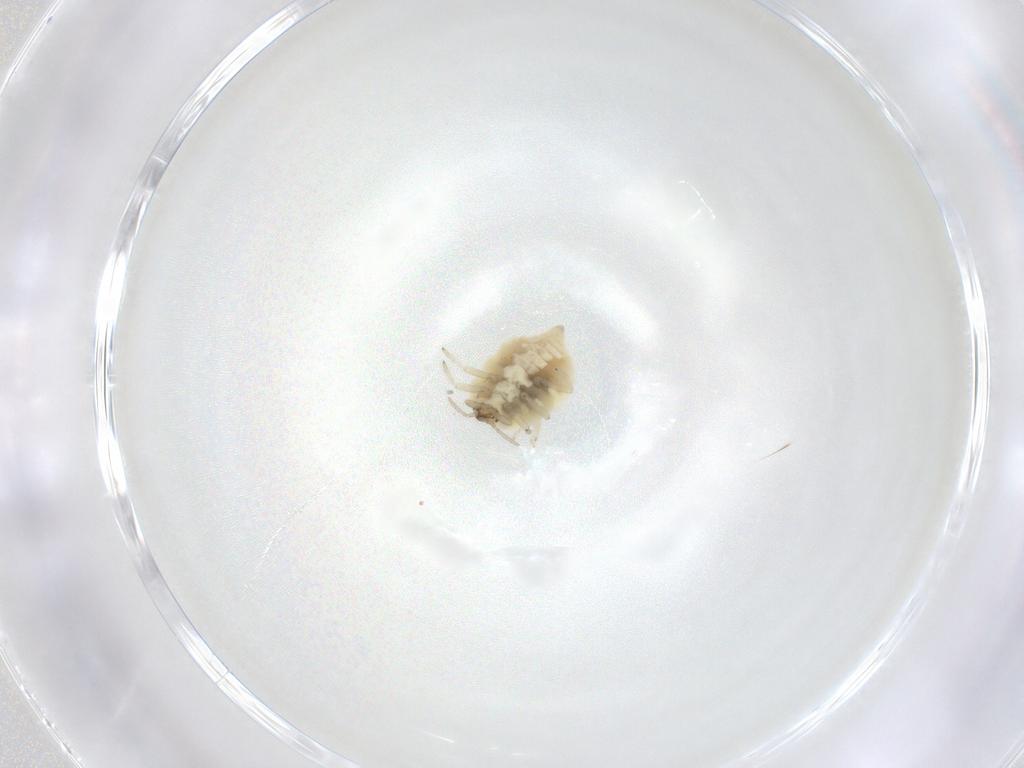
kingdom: Animalia
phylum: Arthropoda
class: Insecta
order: Neuroptera
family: Coniopterygidae
